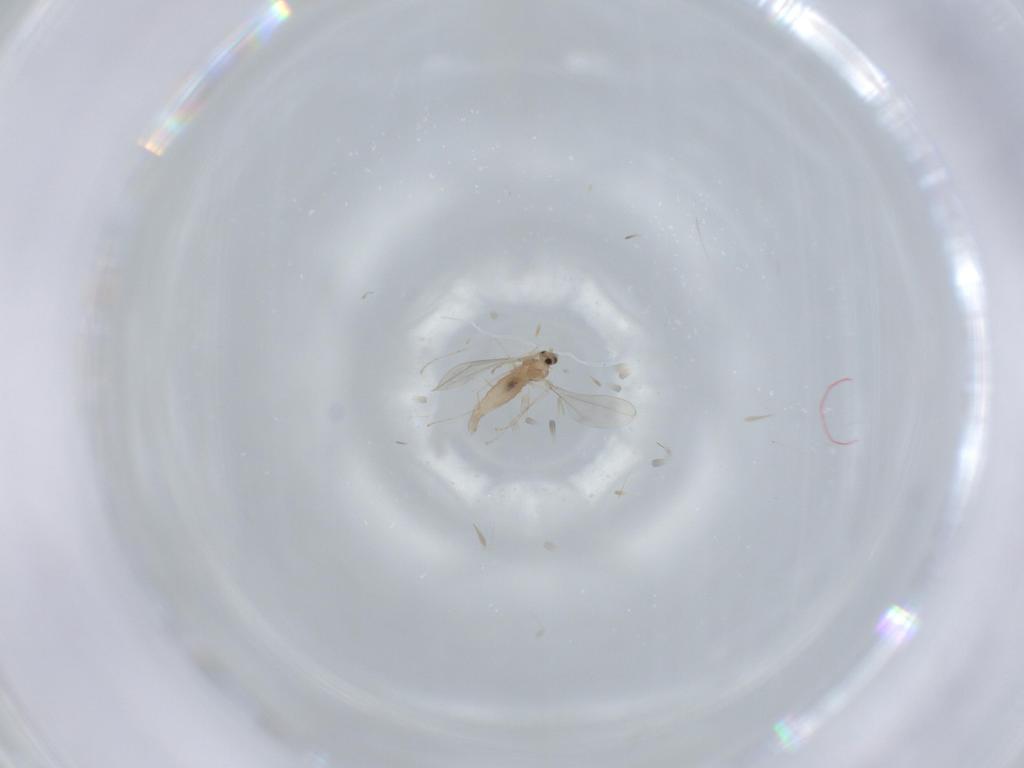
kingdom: Animalia
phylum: Arthropoda
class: Insecta
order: Diptera
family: Cecidomyiidae
